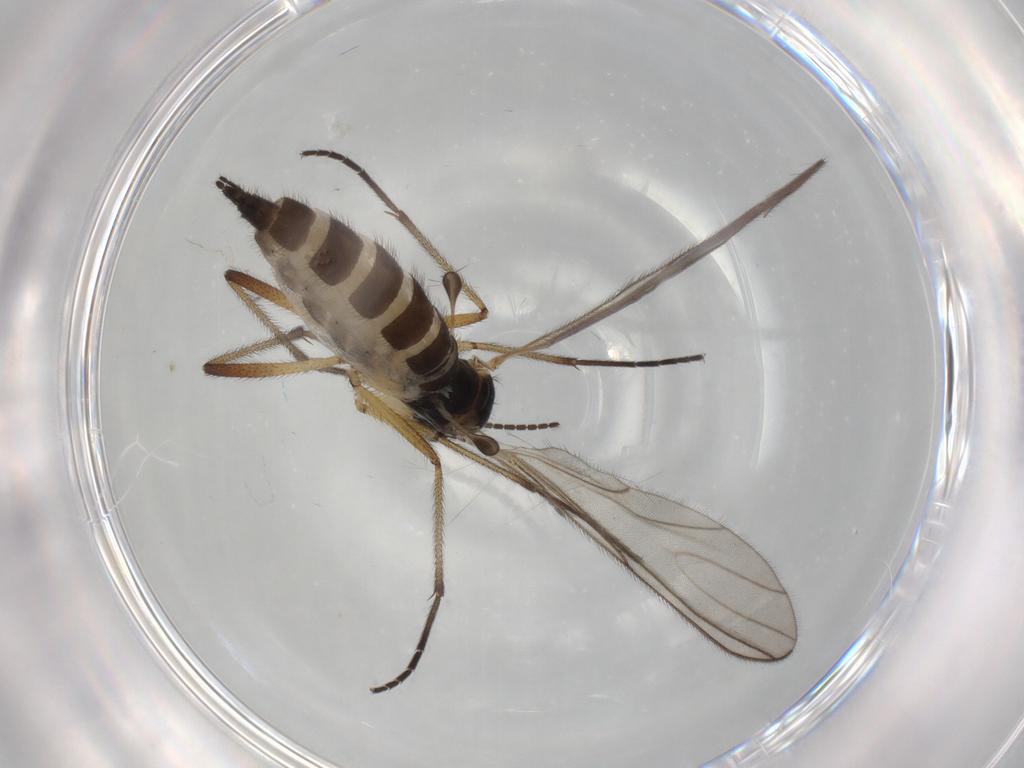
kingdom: Animalia
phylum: Arthropoda
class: Insecta
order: Diptera
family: Sciaridae
